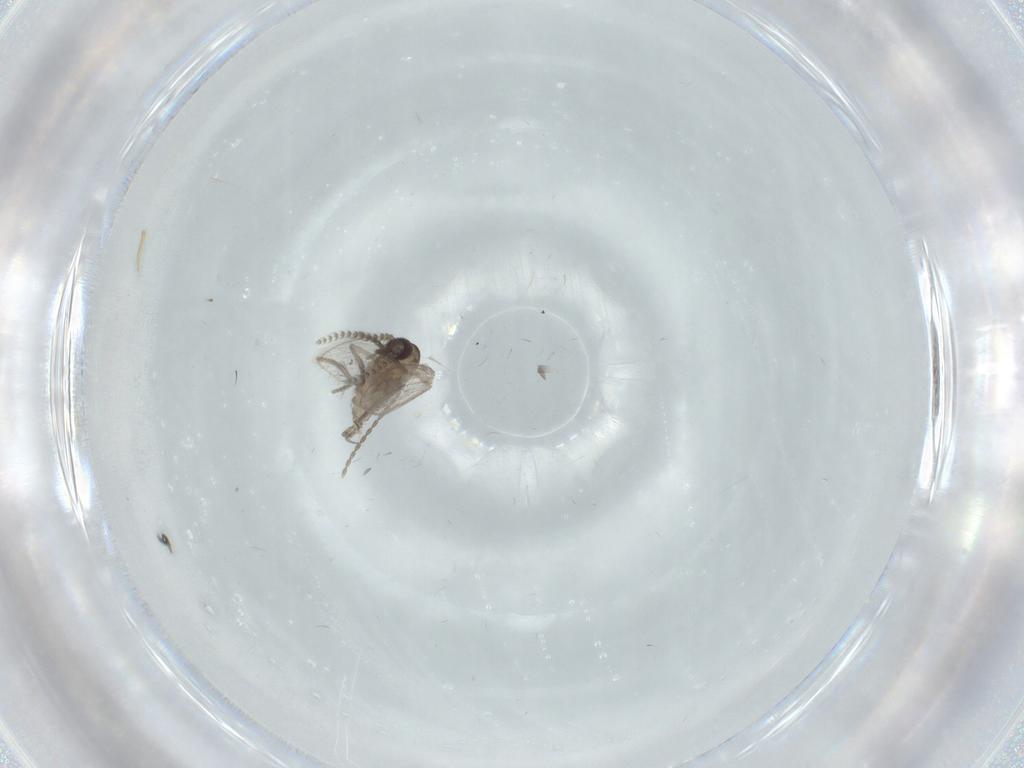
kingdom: Animalia
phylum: Arthropoda
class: Insecta
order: Diptera
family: Psychodidae
